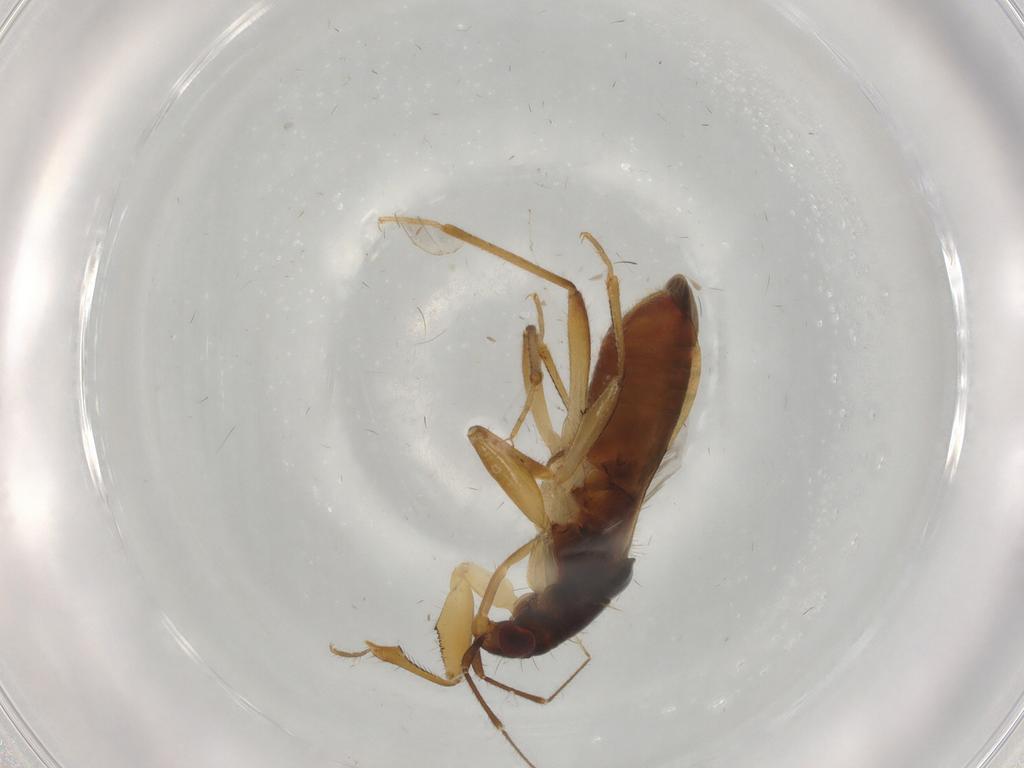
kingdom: Animalia
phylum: Arthropoda
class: Insecta
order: Hemiptera
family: Nabidae
